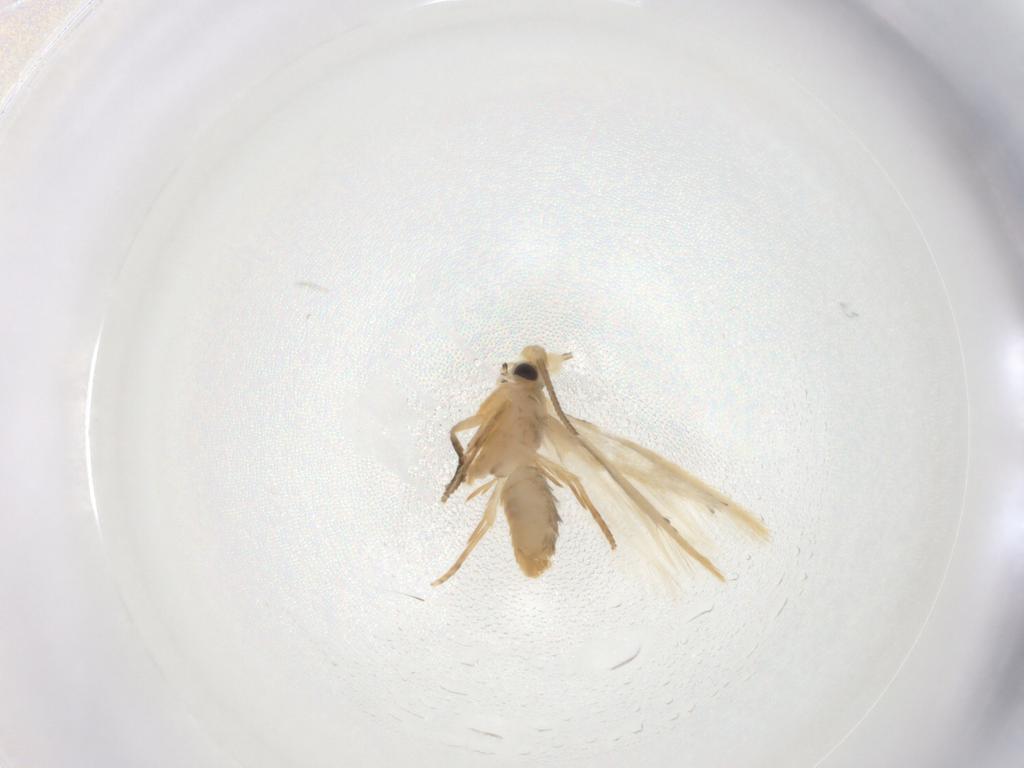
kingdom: Animalia
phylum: Arthropoda
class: Insecta
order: Lepidoptera
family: Nepticulidae
